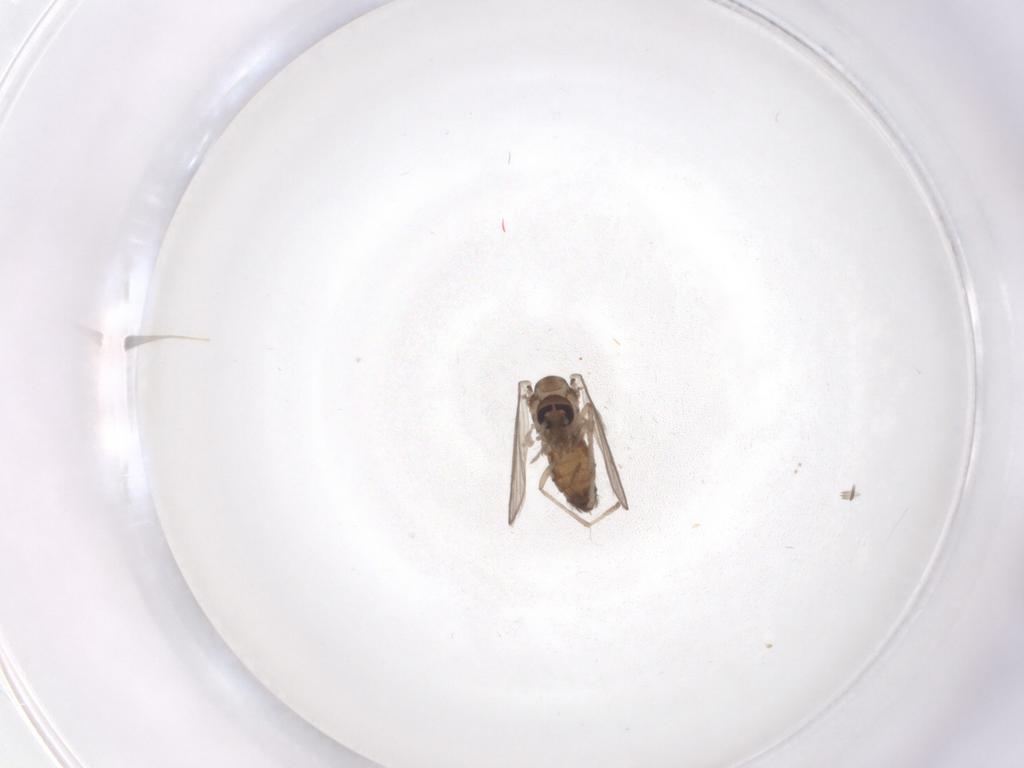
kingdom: Animalia
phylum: Arthropoda
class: Insecta
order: Diptera
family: Psychodidae
